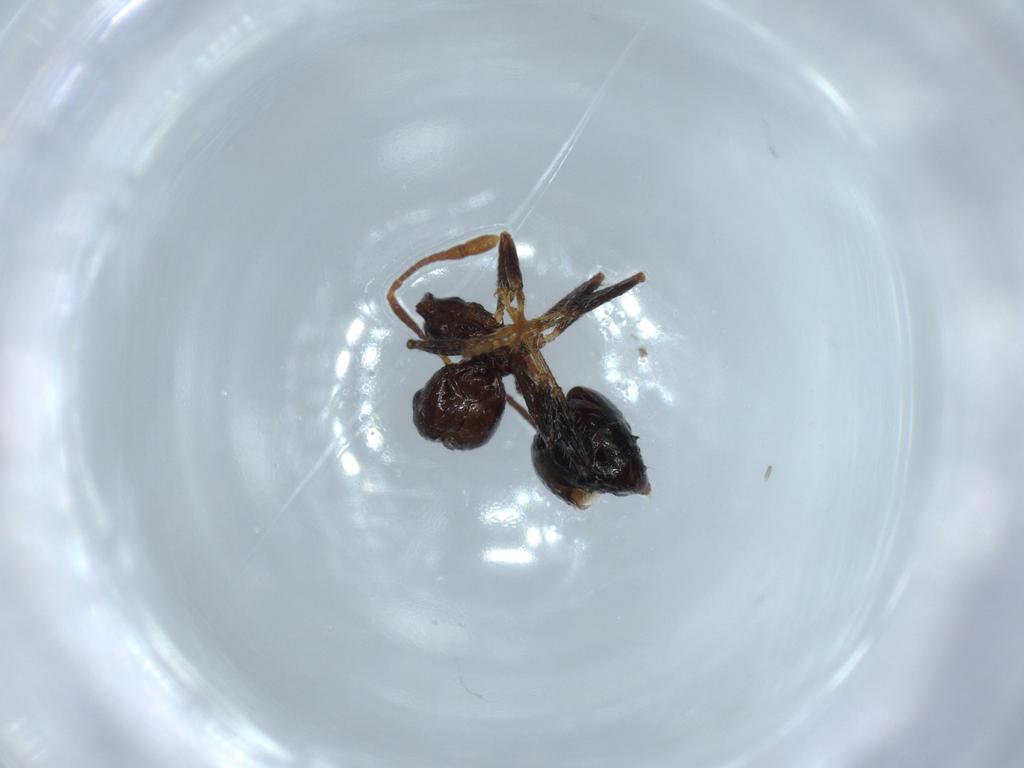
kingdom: Animalia
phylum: Arthropoda
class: Insecta
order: Hymenoptera
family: Formicidae
